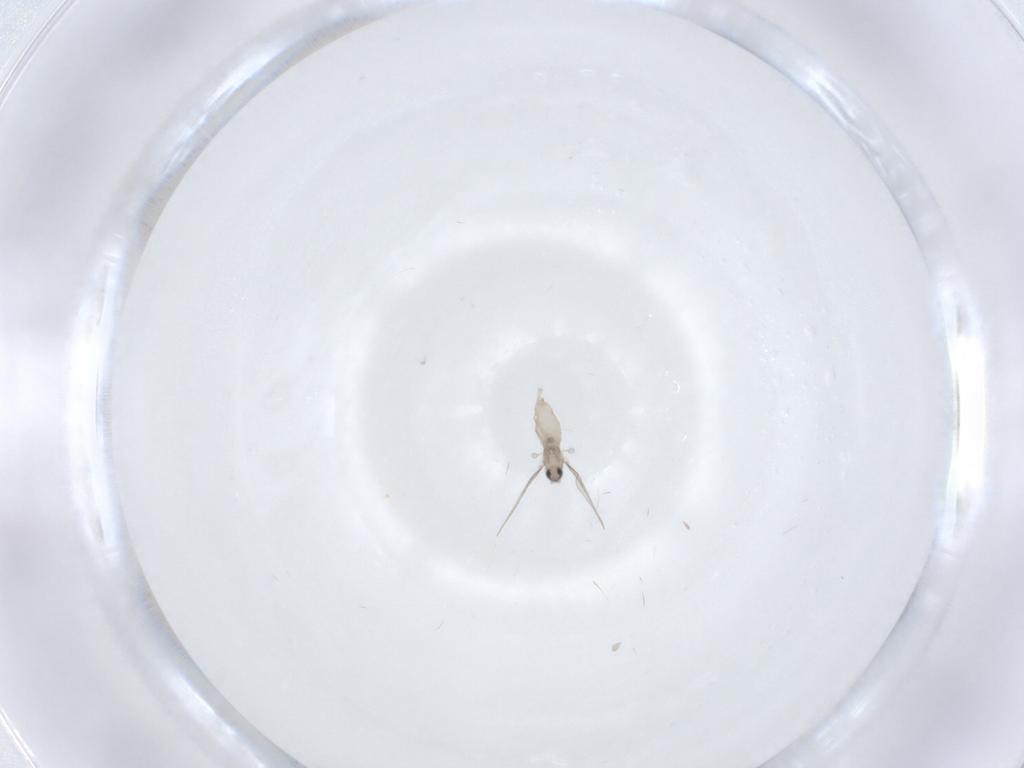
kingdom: Animalia
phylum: Arthropoda
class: Insecta
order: Diptera
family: Cecidomyiidae
